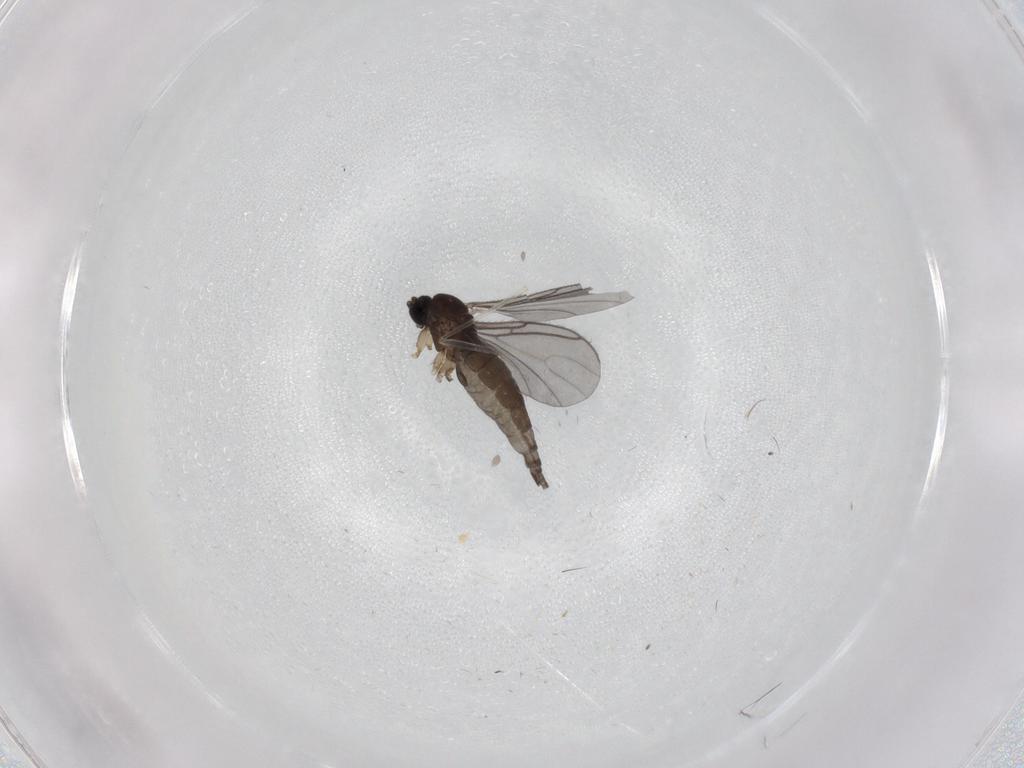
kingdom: Animalia
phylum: Arthropoda
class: Insecta
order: Diptera
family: Sciaridae
